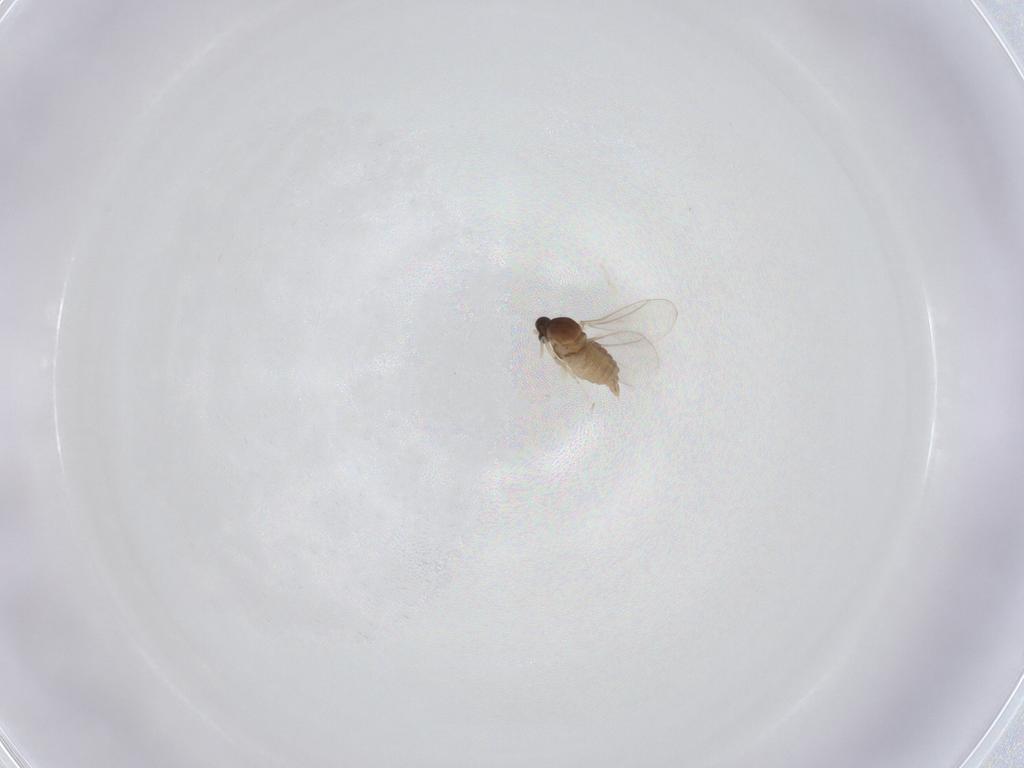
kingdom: Animalia
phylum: Arthropoda
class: Insecta
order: Diptera
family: Cecidomyiidae
